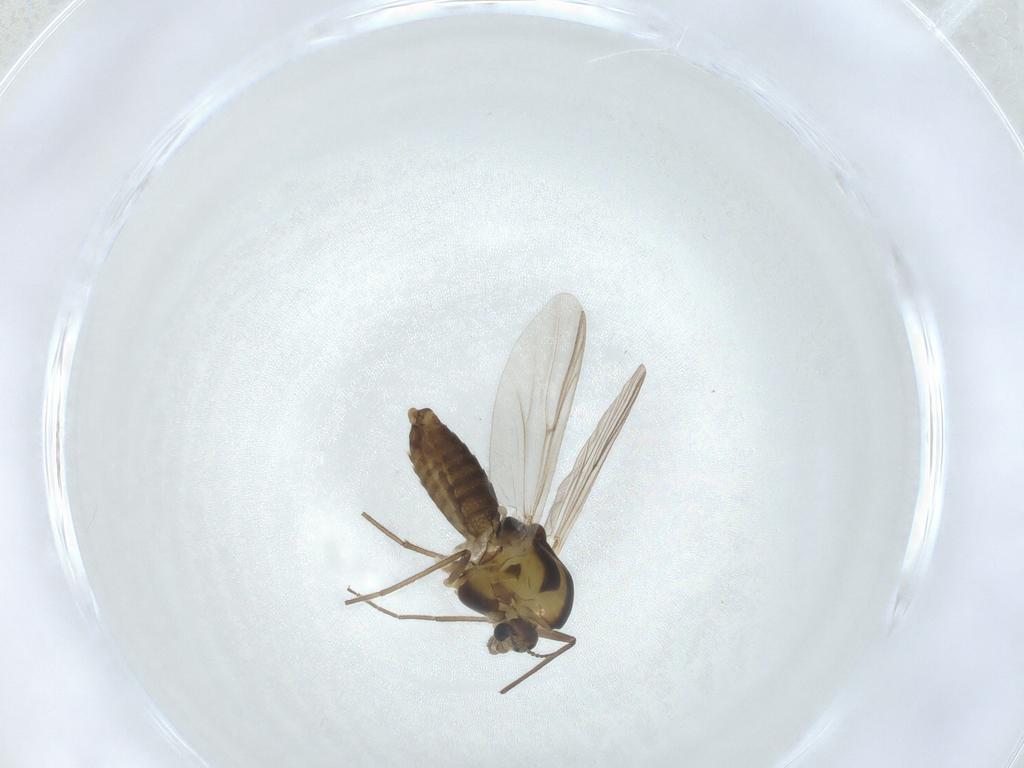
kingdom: Animalia
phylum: Arthropoda
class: Insecta
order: Diptera
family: Chironomidae
